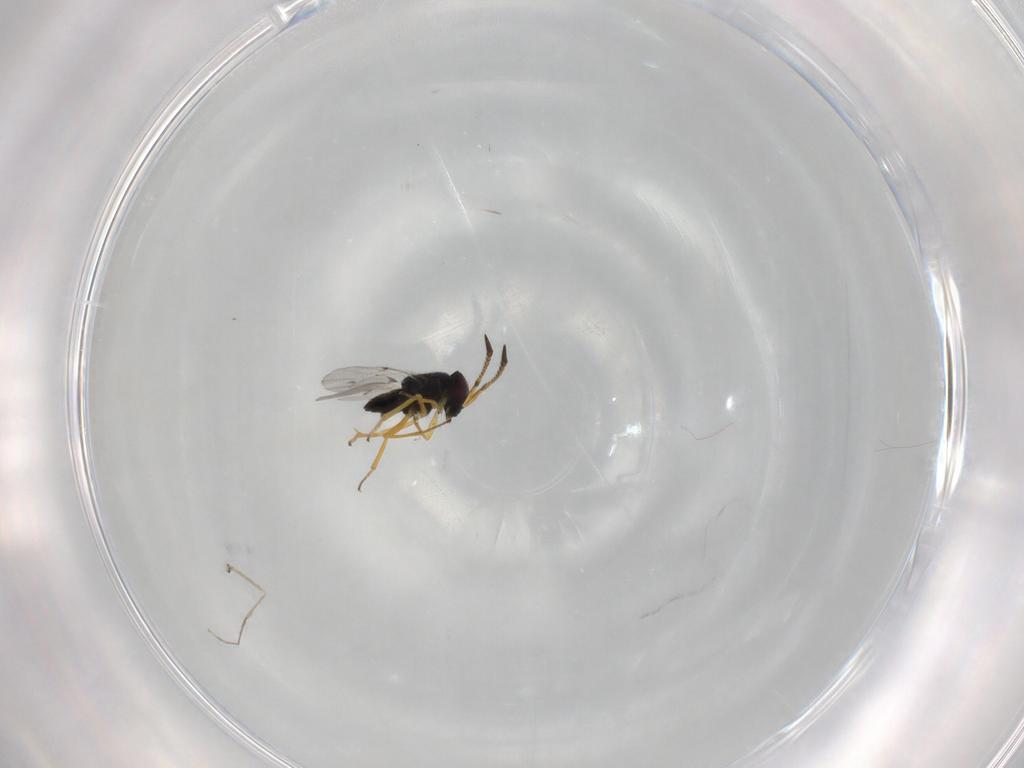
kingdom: Animalia
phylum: Arthropoda
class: Insecta
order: Hymenoptera
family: Encyrtidae
